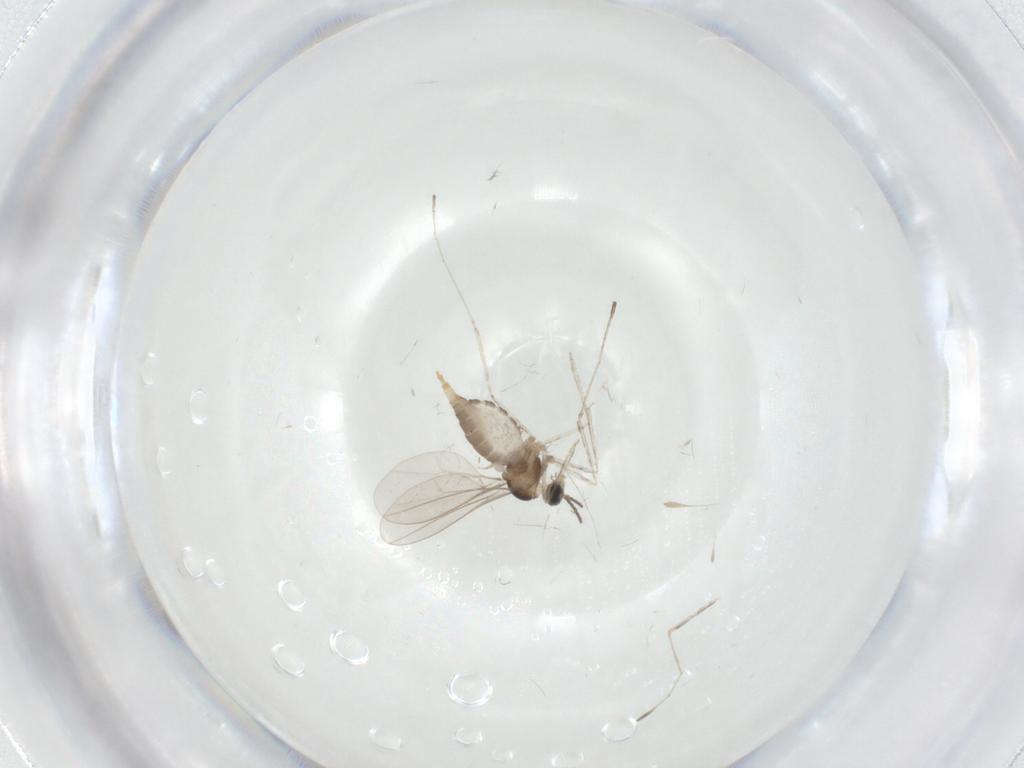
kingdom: Animalia
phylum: Arthropoda
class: Insecta
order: Diptera
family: Cecidomyiidae
